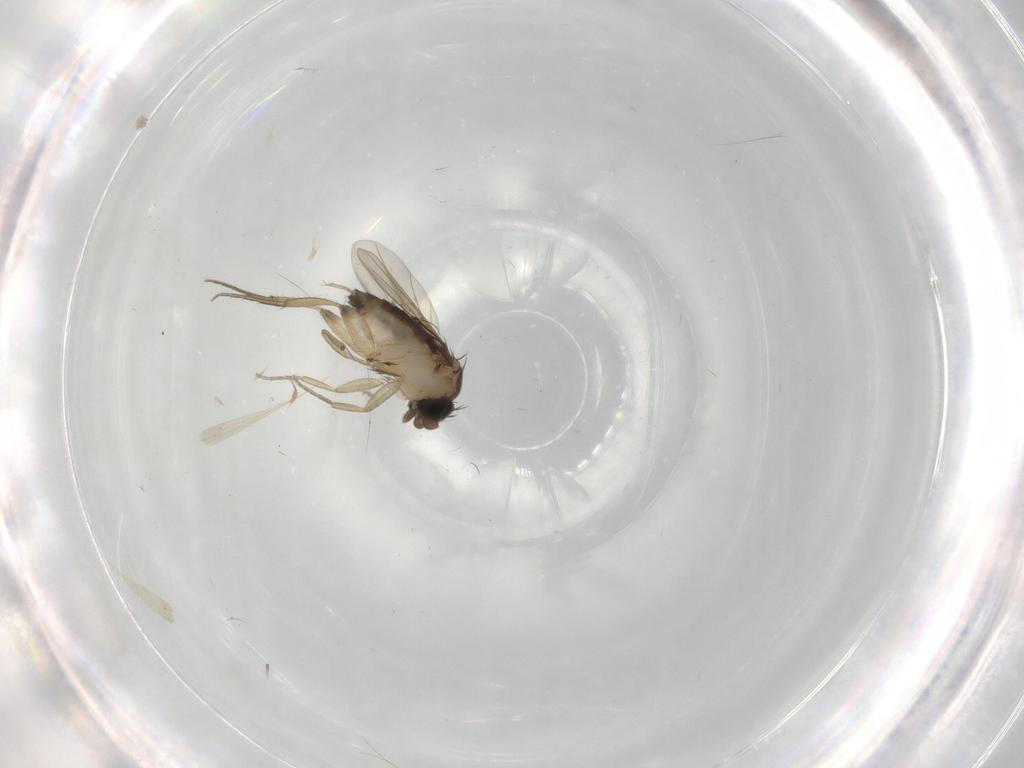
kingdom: Animalia
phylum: Arthropoda
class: Insecta
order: Diptera
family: Phoridae
